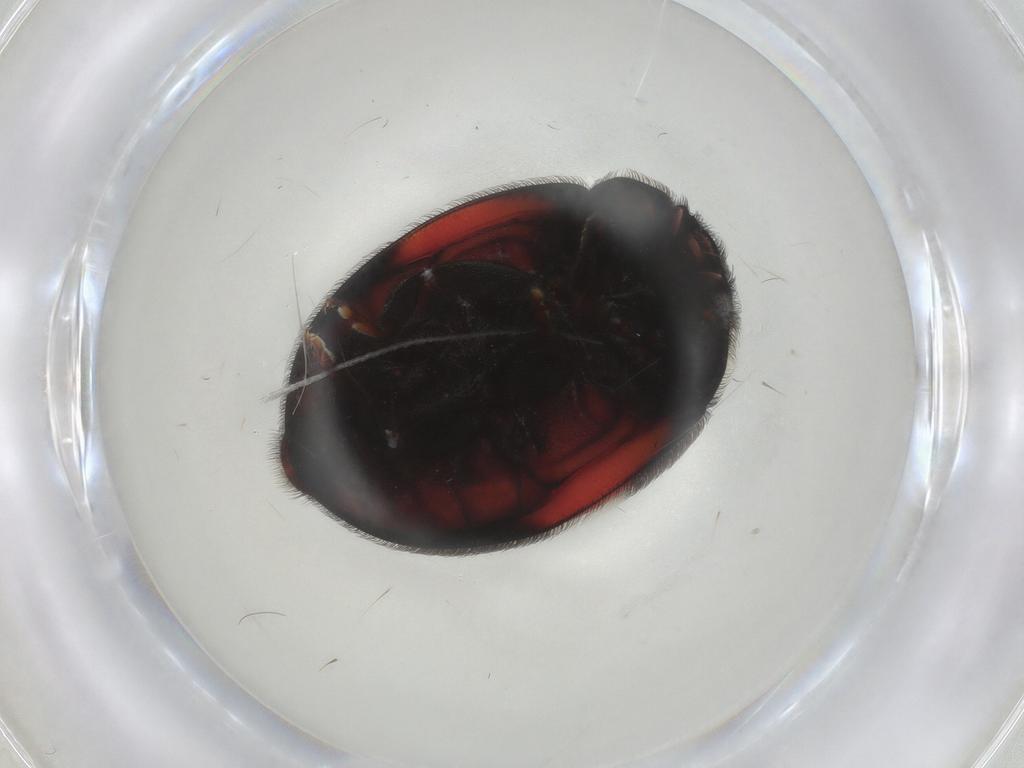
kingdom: Animalia
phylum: Arthropoda
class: Insecta
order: Coleoptera
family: Coccinellidae
